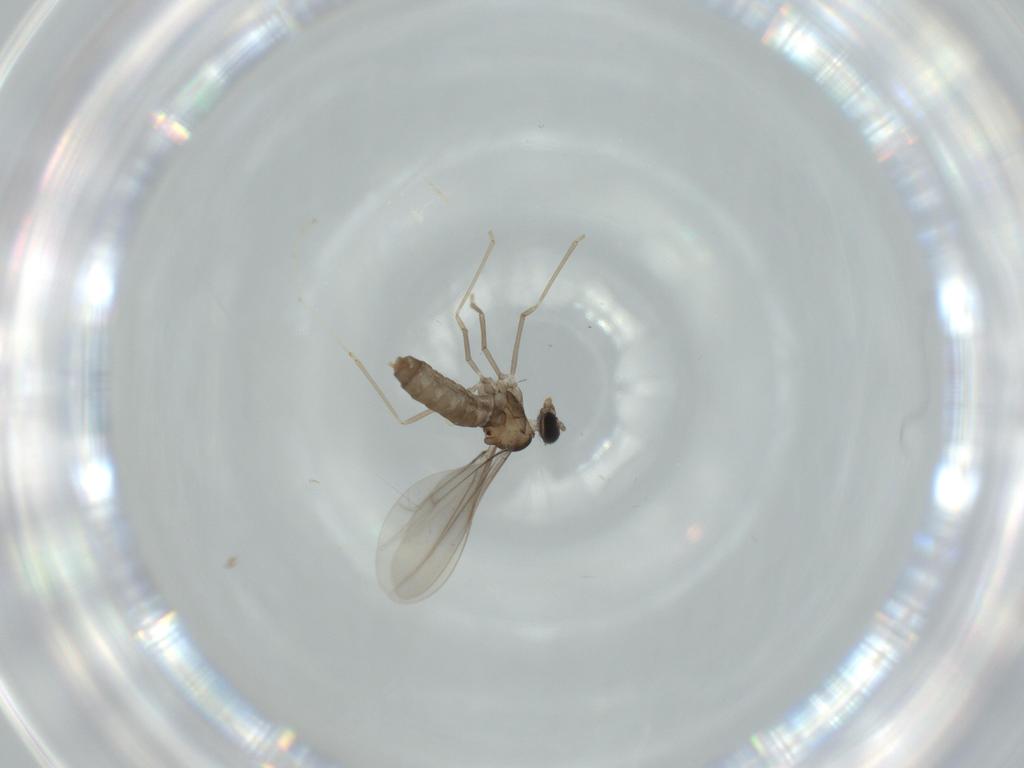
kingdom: Animalia
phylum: Arthropoda
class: Insecta
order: Diptera
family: Cecidomyiidae
